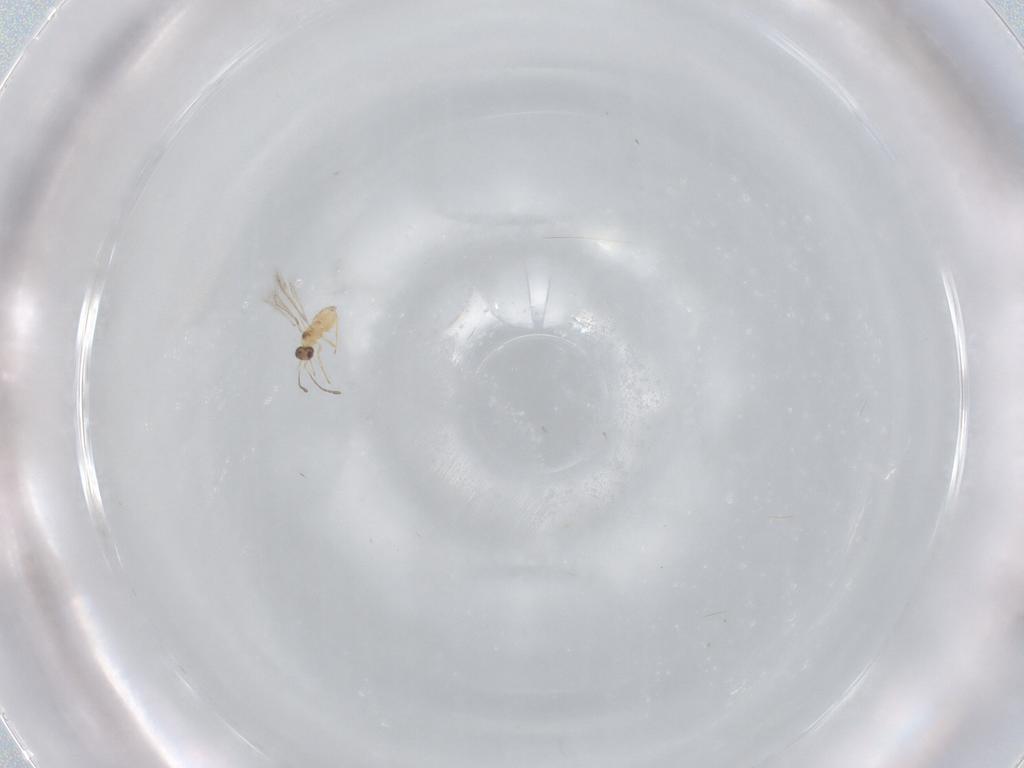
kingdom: Animalia
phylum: Arthropoda
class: Insecta
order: Hymenoptera
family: Mymaridae
